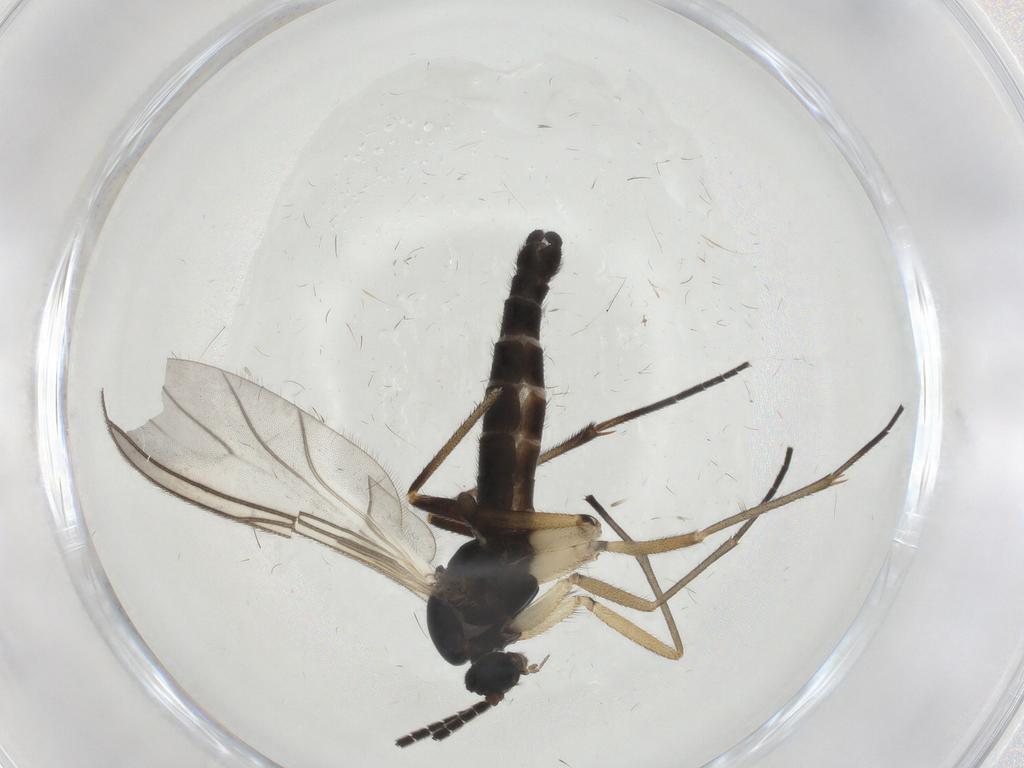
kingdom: Animalia
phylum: Arthropoda
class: Insecta
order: Diptera
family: Sciaridae
